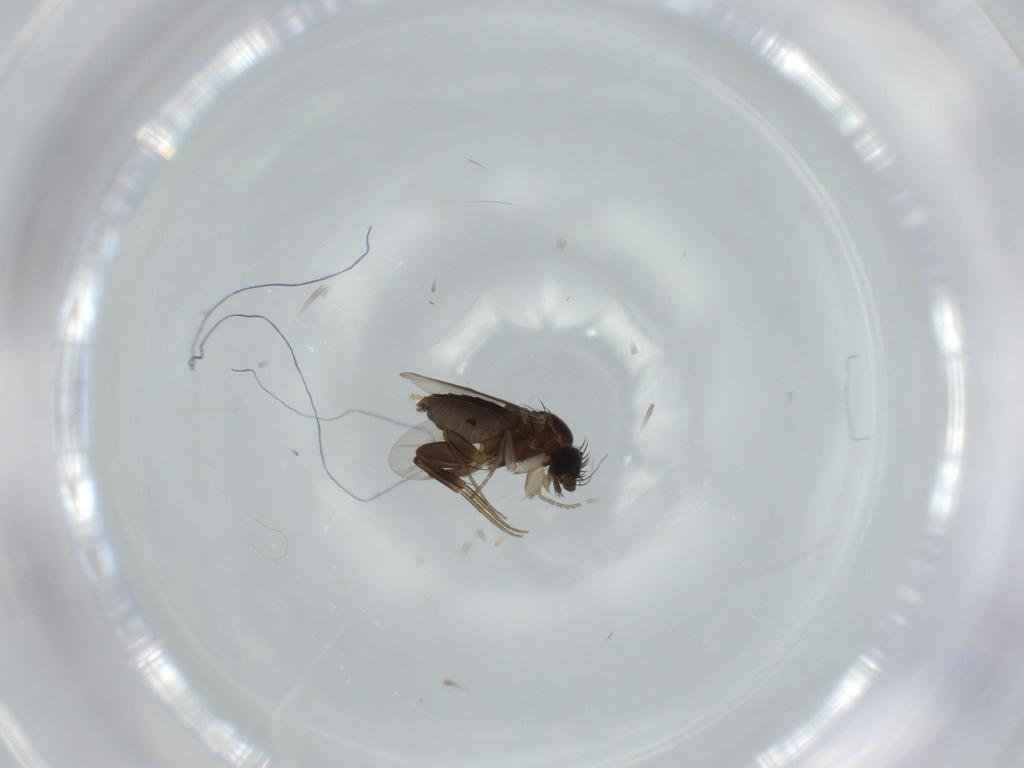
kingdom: Animalia
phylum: Arthropoda
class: Insecta
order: Diptera
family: Phoridae
